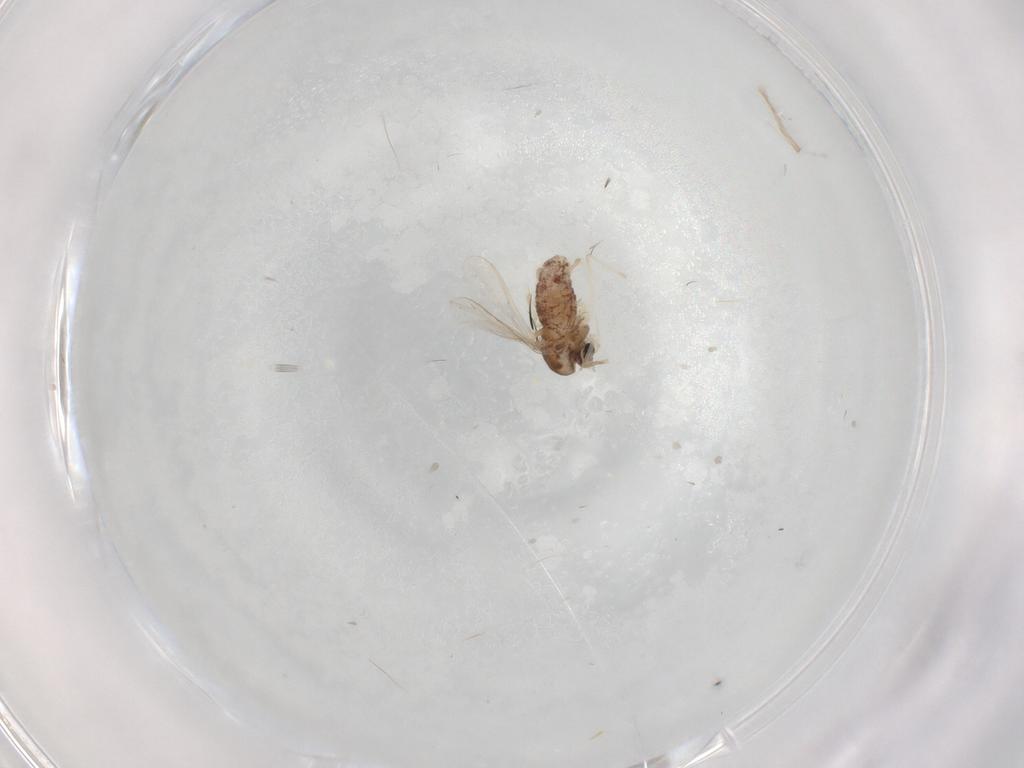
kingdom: Animalia
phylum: Arthropoda
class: Insecta
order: Diptera
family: Chironomidae
